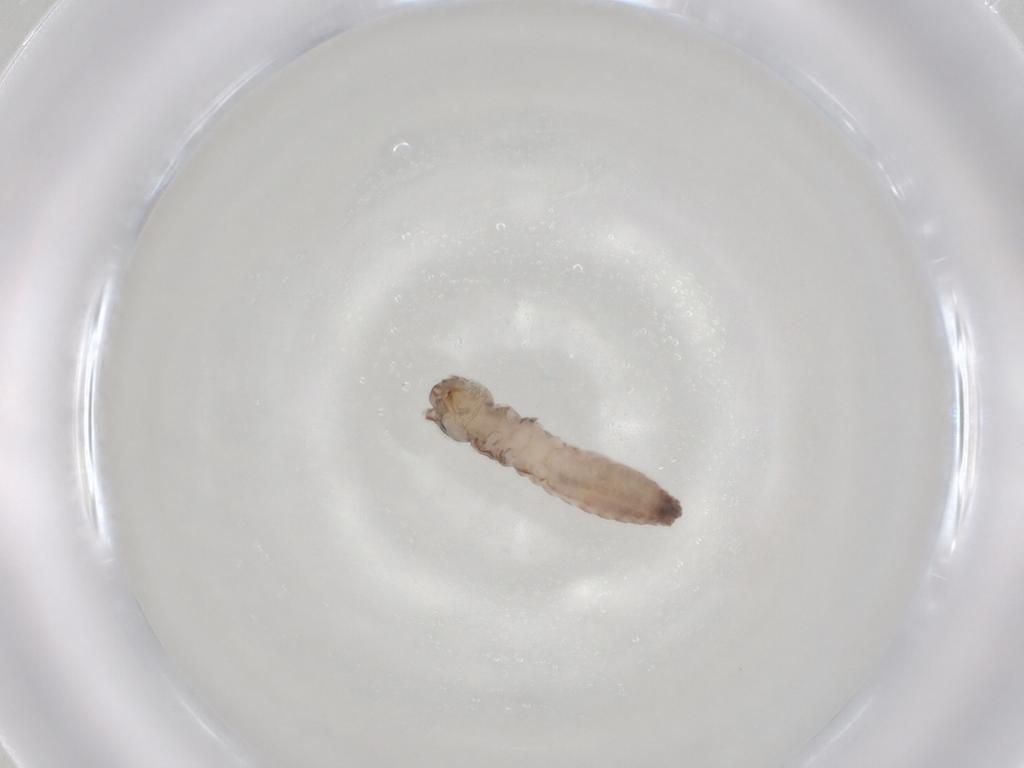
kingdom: Animalia
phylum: Arthropoda
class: Insecta
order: Orthoptera
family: Mogoplistidae
